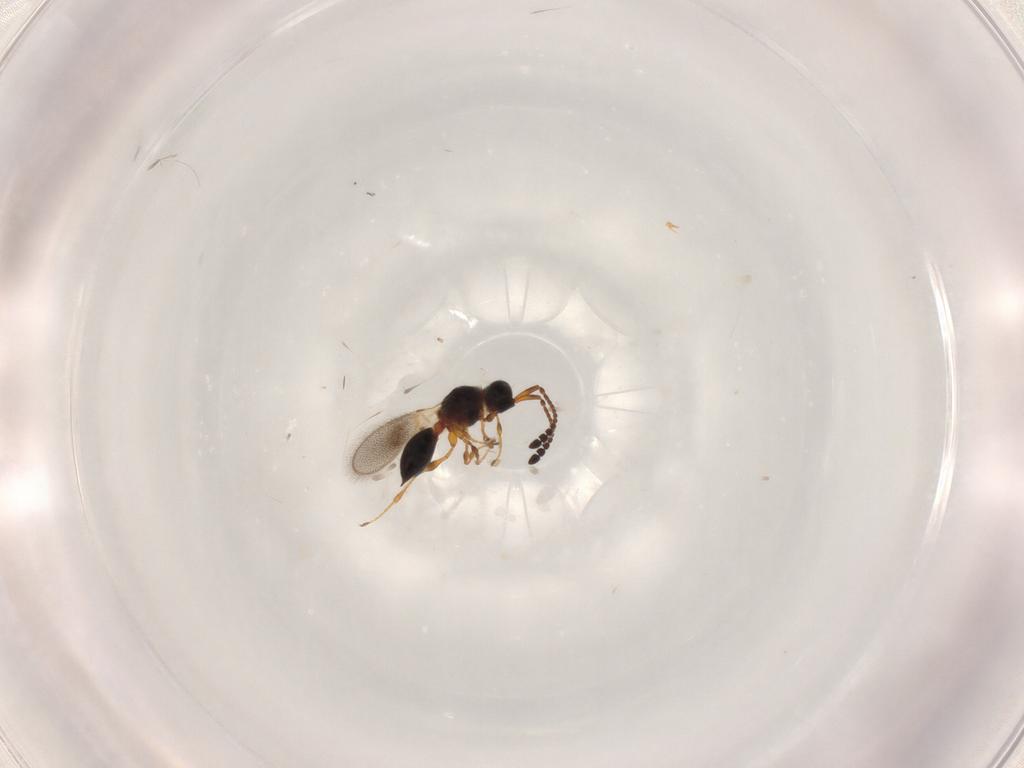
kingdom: Animalia
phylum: Arthropoda
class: Insecta
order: Hymenoptera
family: Diapriidae
